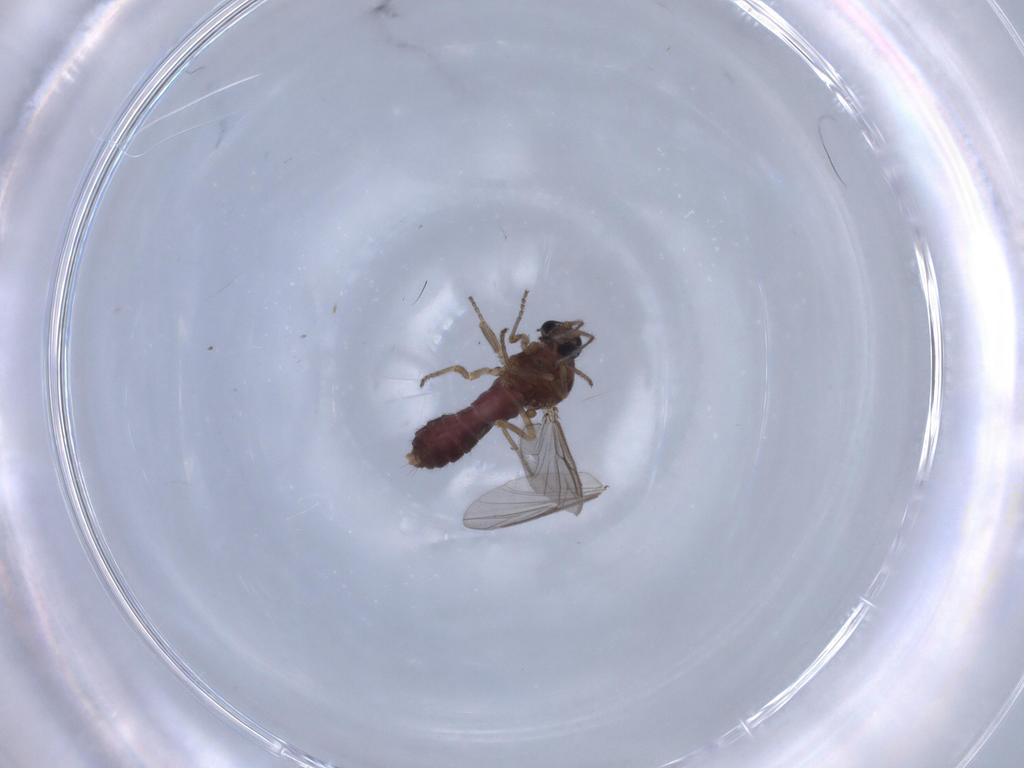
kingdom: Animalia
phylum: Arthropoda
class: Insecta
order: Diptera
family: Ceratopogonidae
